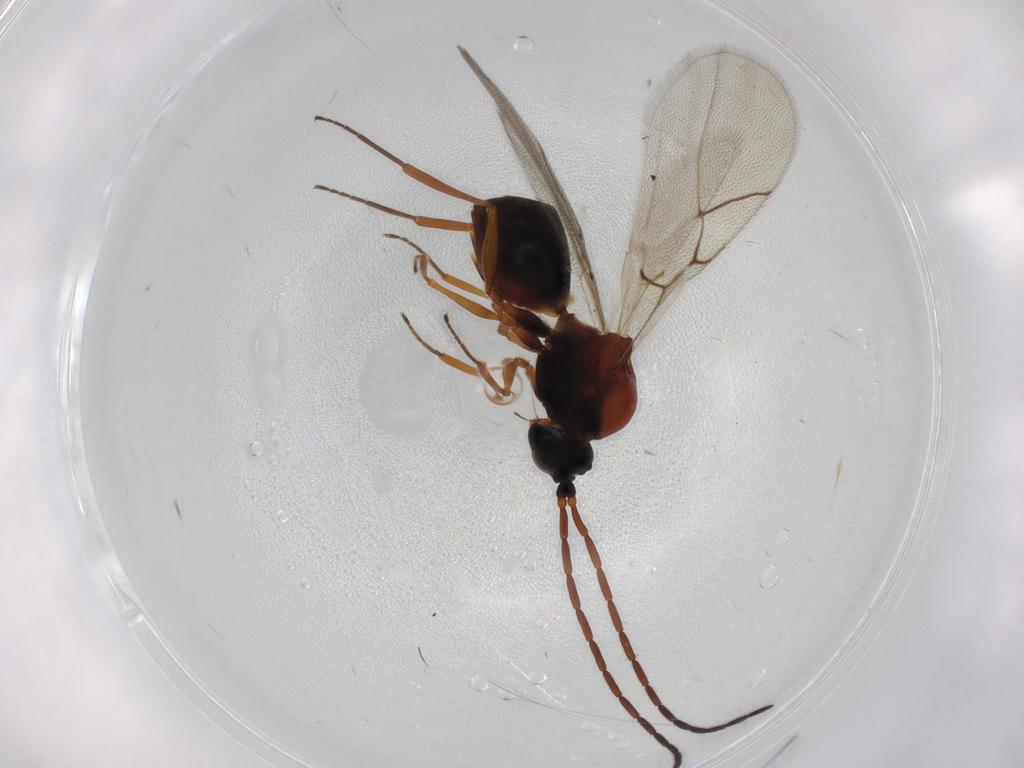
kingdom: Animalia
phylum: Arthropoda
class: Insecta
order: Hymenoptera
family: Figitidae
